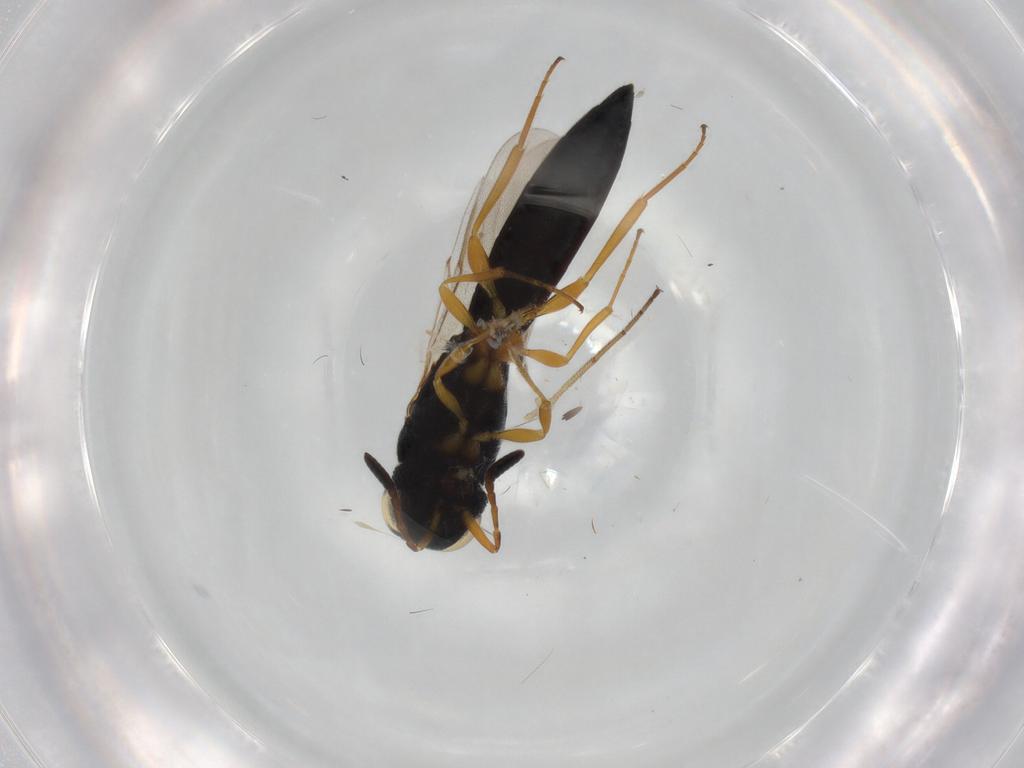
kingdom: Animalia
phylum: Arthropoda
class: Insecta
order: Hymenoptera
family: Scelionidae
